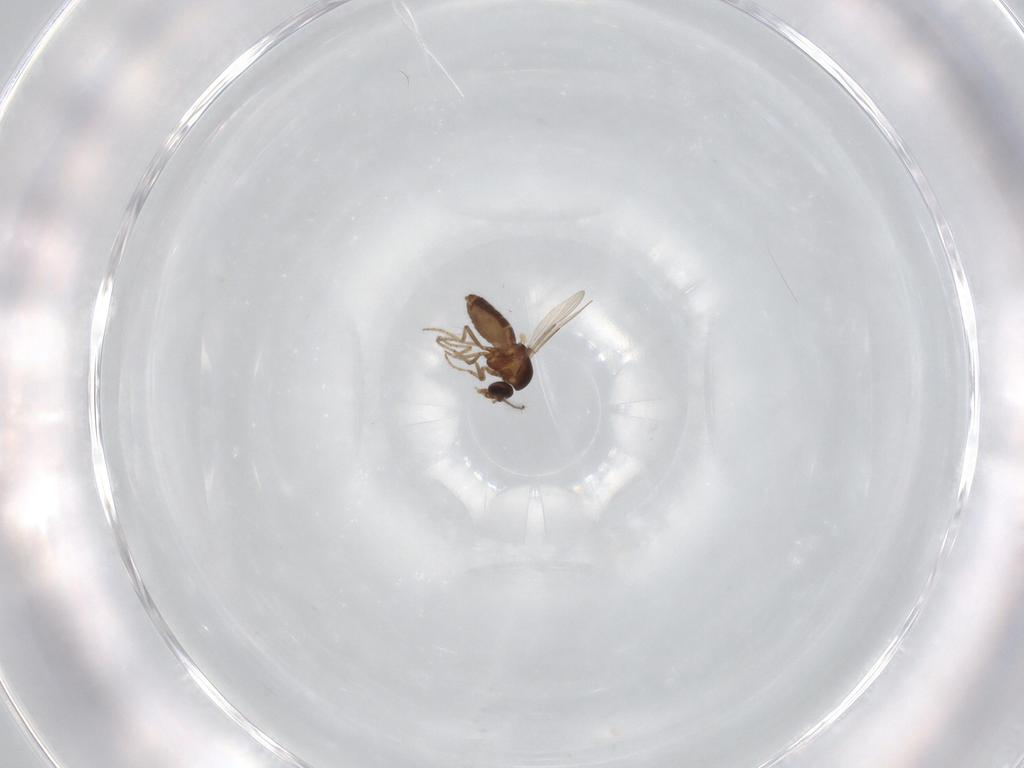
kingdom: Animalia
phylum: Arthropoda
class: Insecta
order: Diptera
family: Ceratopogonidae
